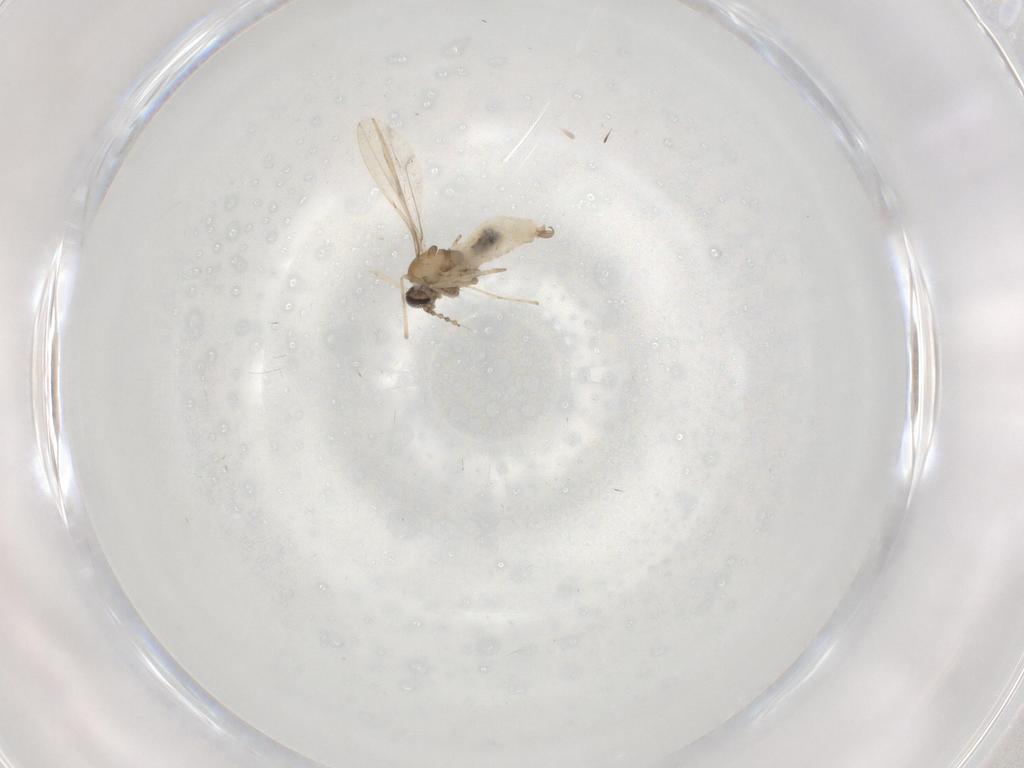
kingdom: Animalia
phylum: Arthropoda
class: Insecta
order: Diptera
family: Cecidomyiidae
